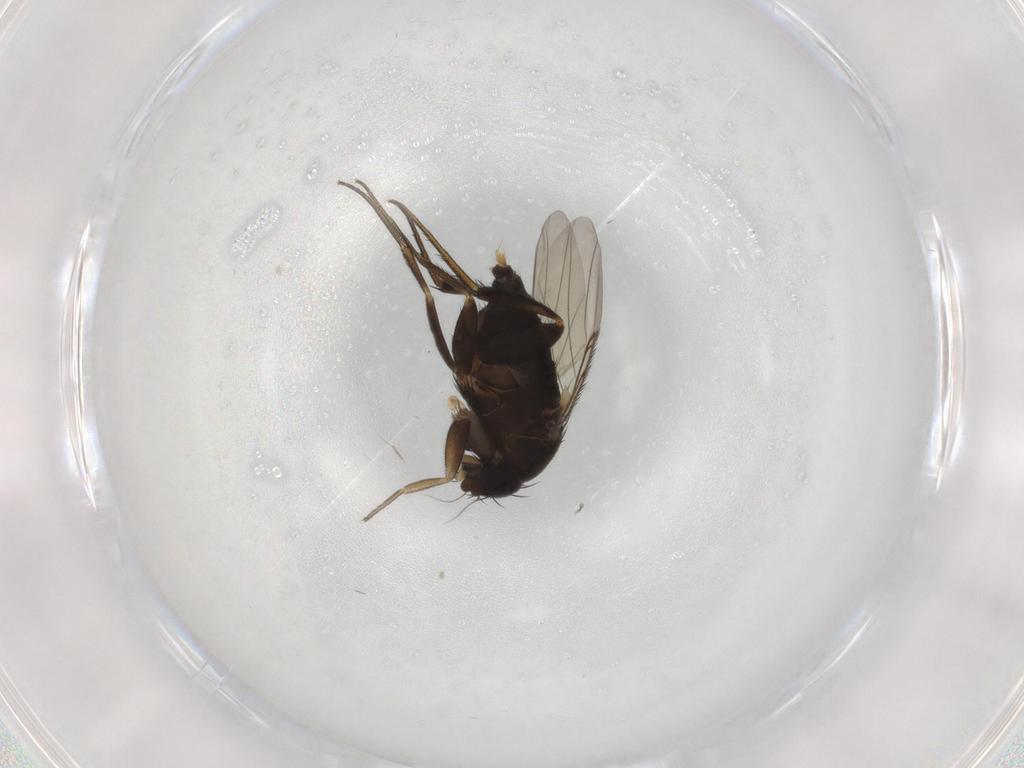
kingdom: Animalia
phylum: Arthropoda
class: Insecta
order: Diptera
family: Phoridae
